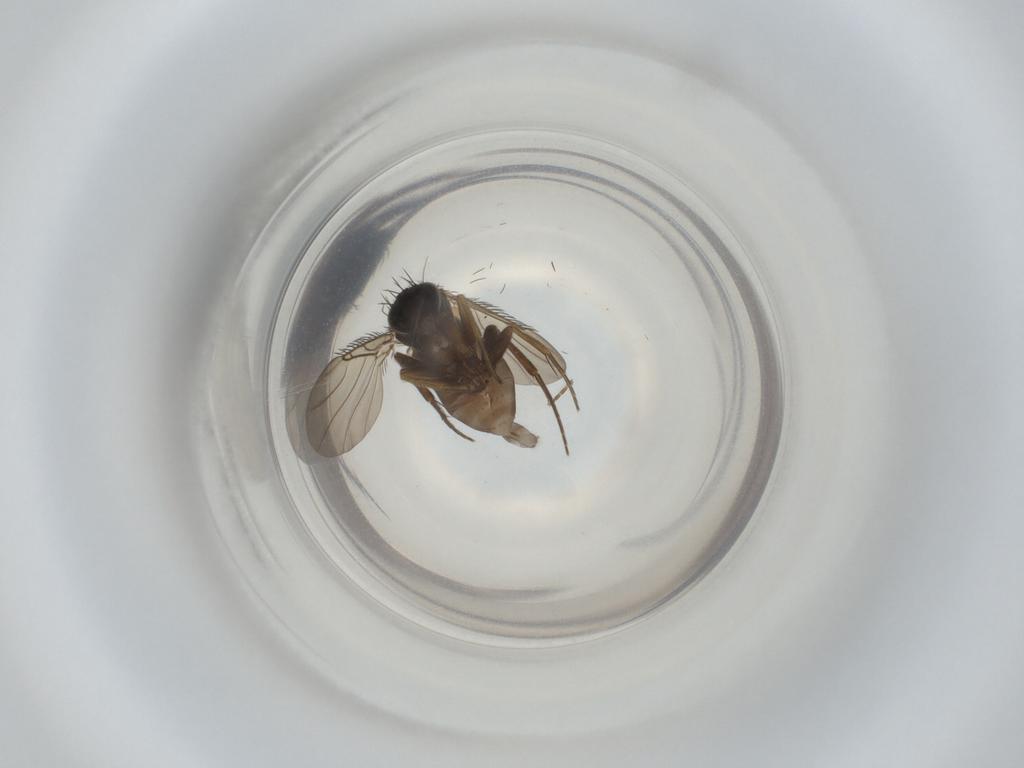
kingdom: Animalia
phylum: Arthropoda
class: Insecta
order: Diptera
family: Phoridae
